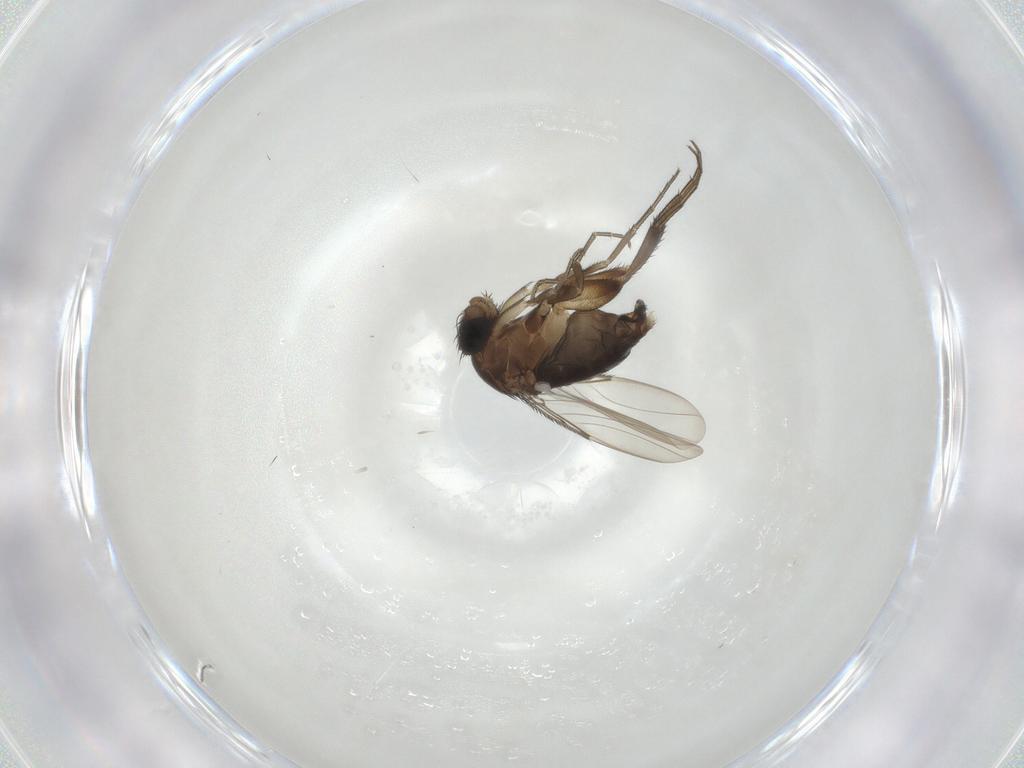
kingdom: Animalia
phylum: Arthropoda
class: Insecta
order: Diptera
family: Phoridae
